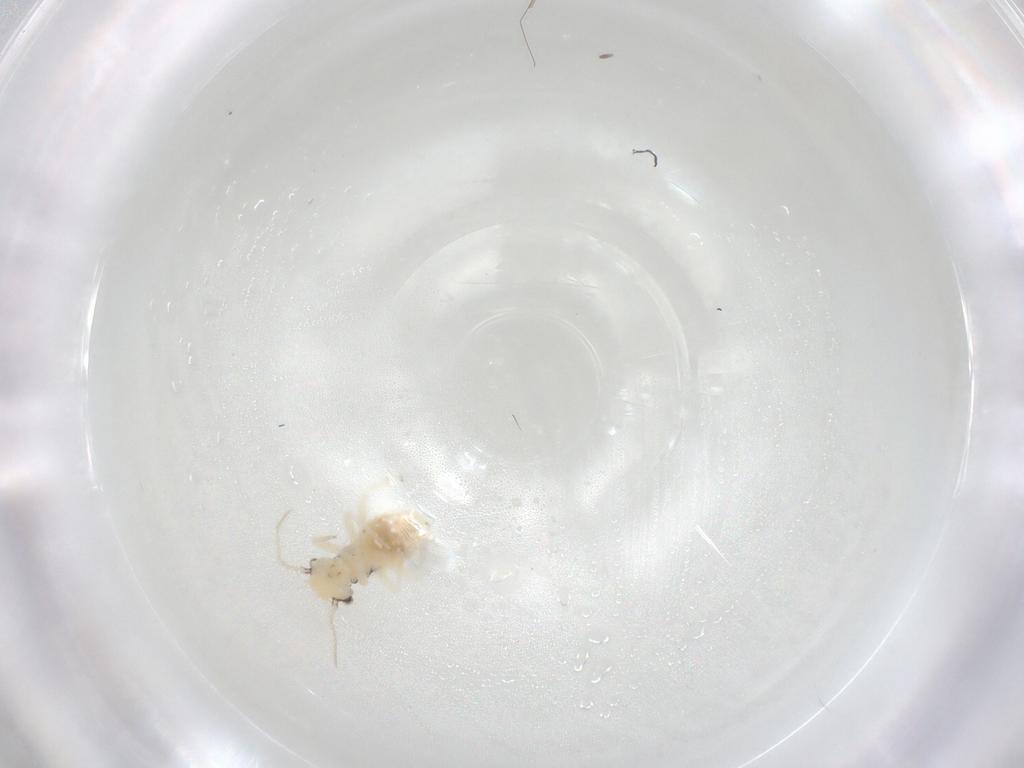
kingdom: Animalia
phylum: Arthropoda
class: Insecta
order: Psocodea
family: Philotarsidae
